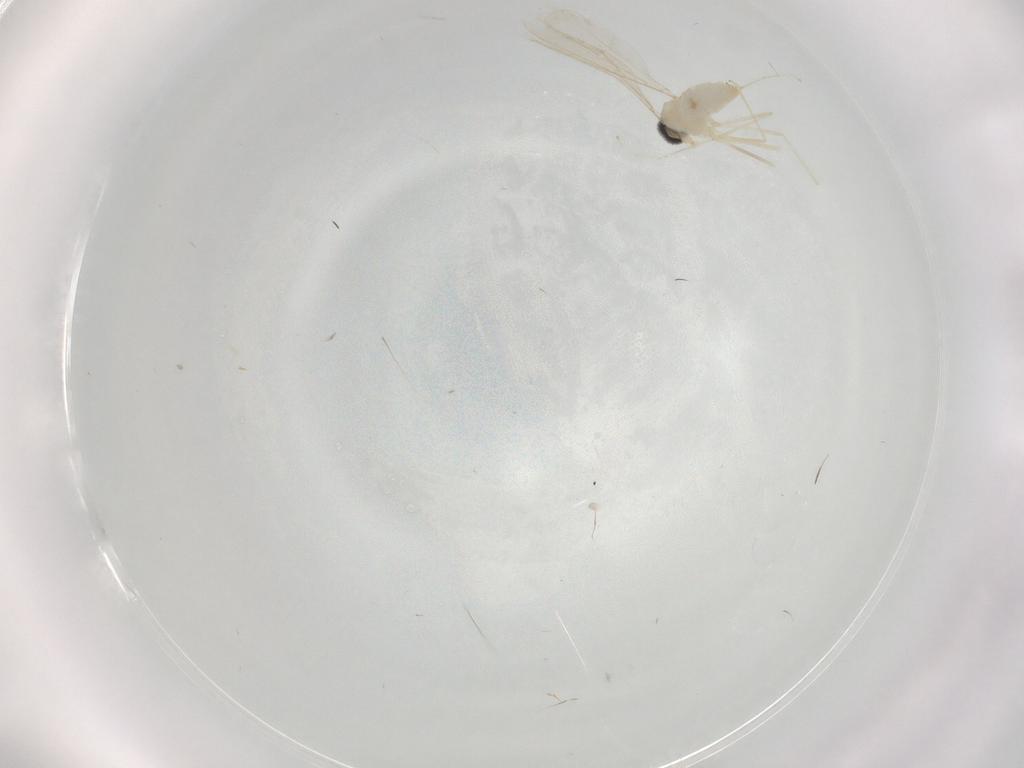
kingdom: Animalia
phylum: Arthropoda
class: Insecta
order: Diptera
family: Cecidomyiidae
